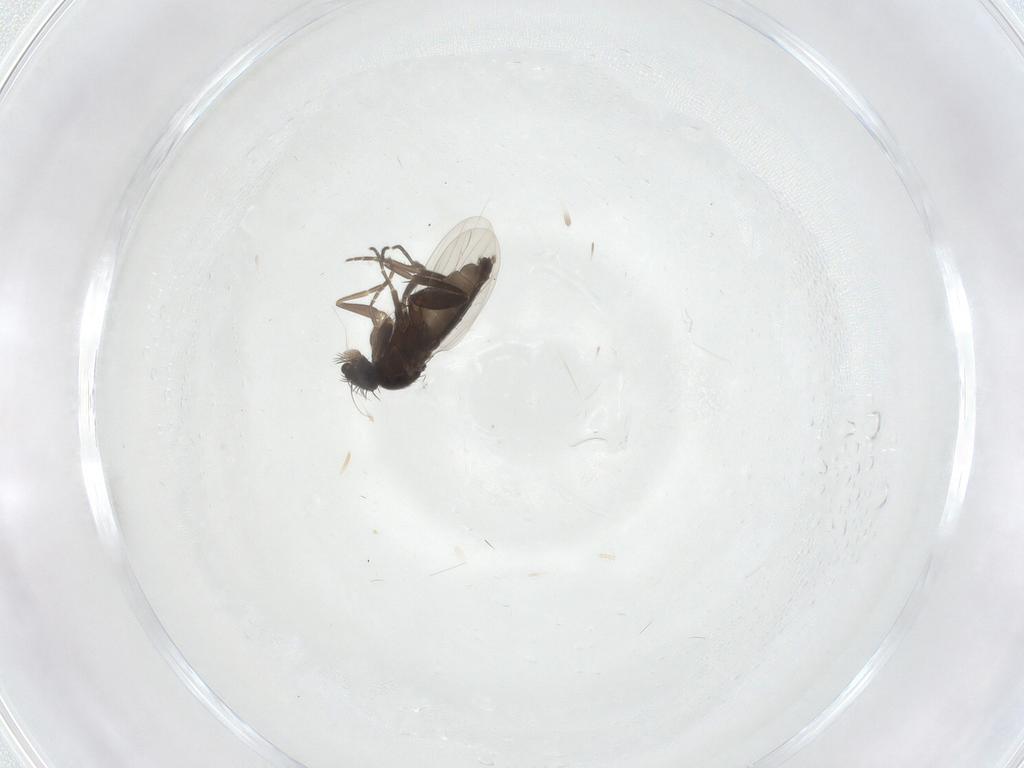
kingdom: Animalia
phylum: Arthropoda
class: Insecta
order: Diptera
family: Phoridae
